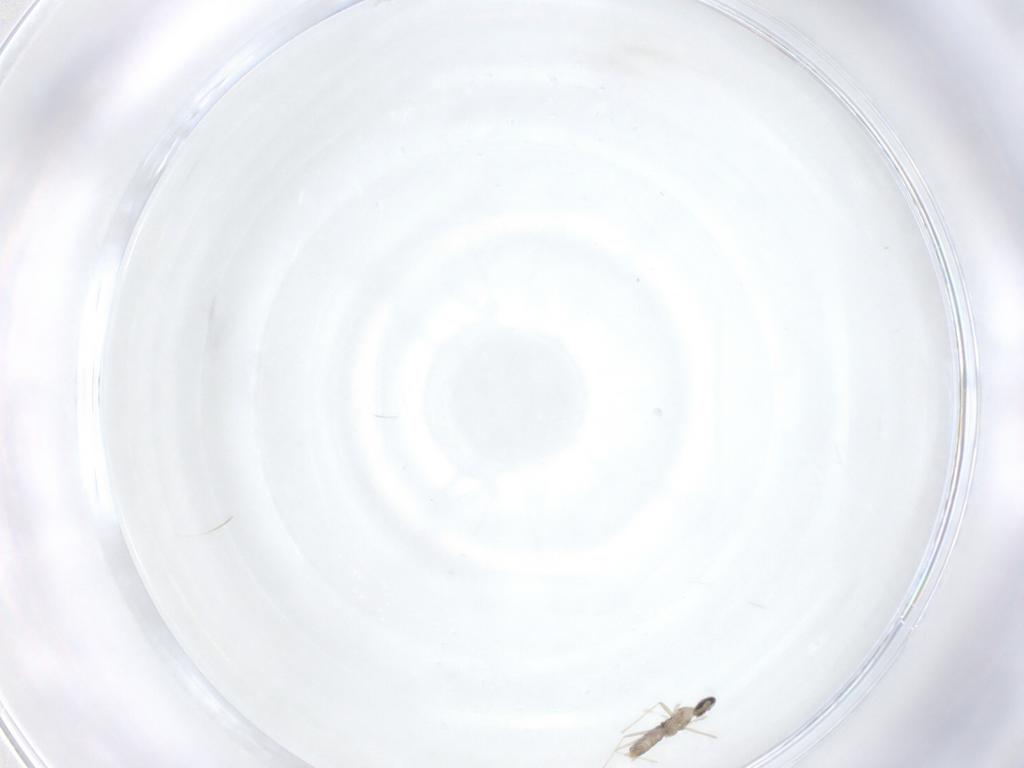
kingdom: Animalia
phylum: Arthropoda
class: Insecta
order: Diptera
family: Cecidomyiidae
